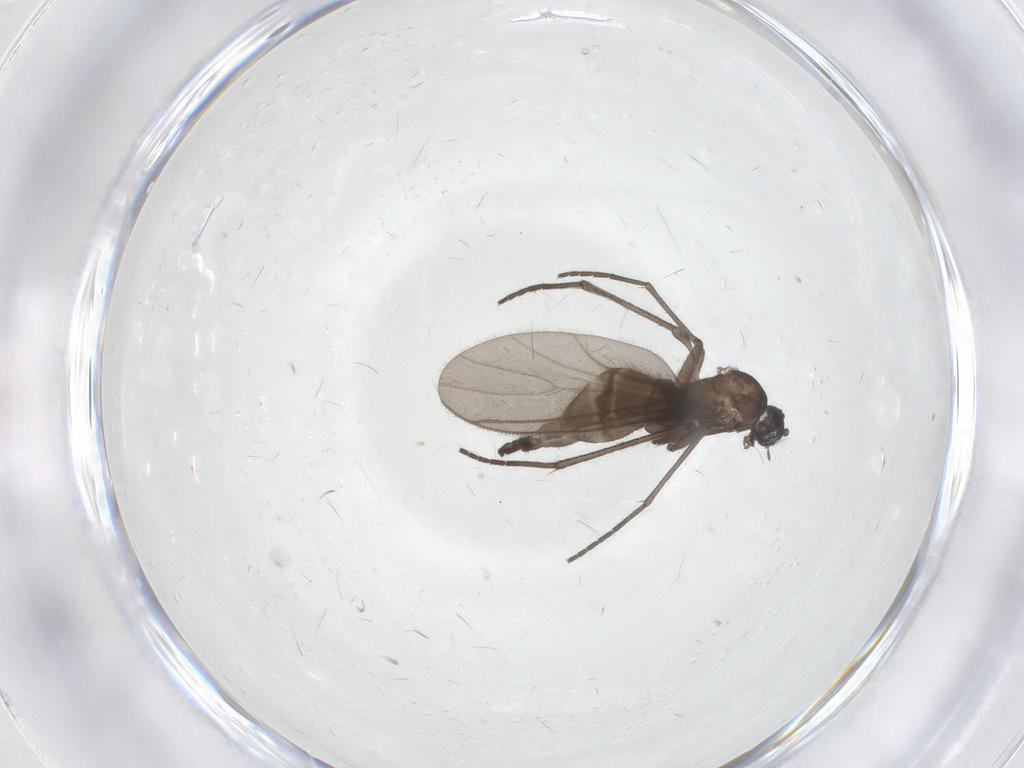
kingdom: Animalia
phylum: Arthropoda
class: Insecta
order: Diptera
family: Sciaridae
